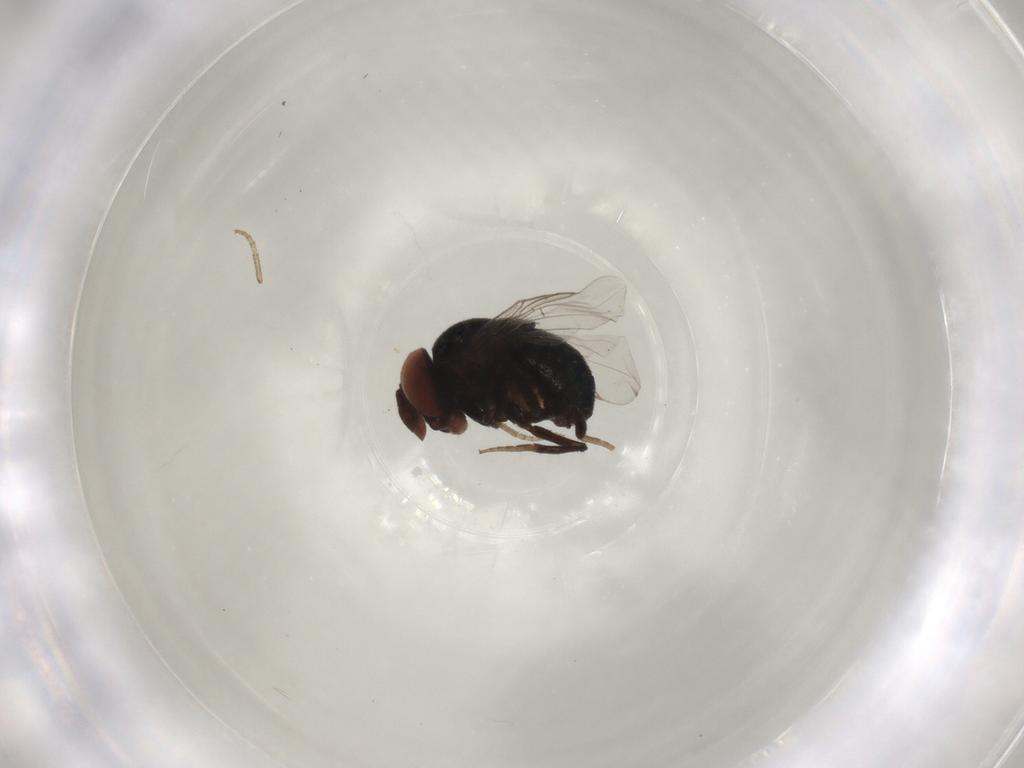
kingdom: Animalia
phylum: Arthropoda
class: Insecta
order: Diptera
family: Cryptochetidae
